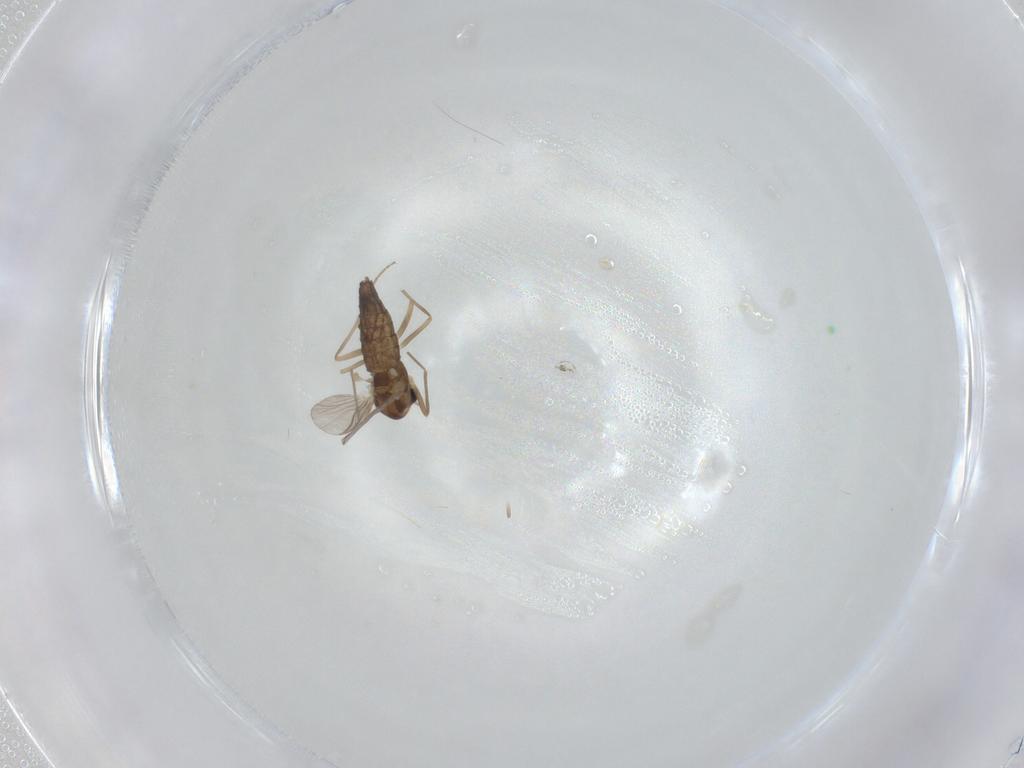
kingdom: Animalia
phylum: Arthropoda
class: Insecta
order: Diptera
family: Chironomidae
